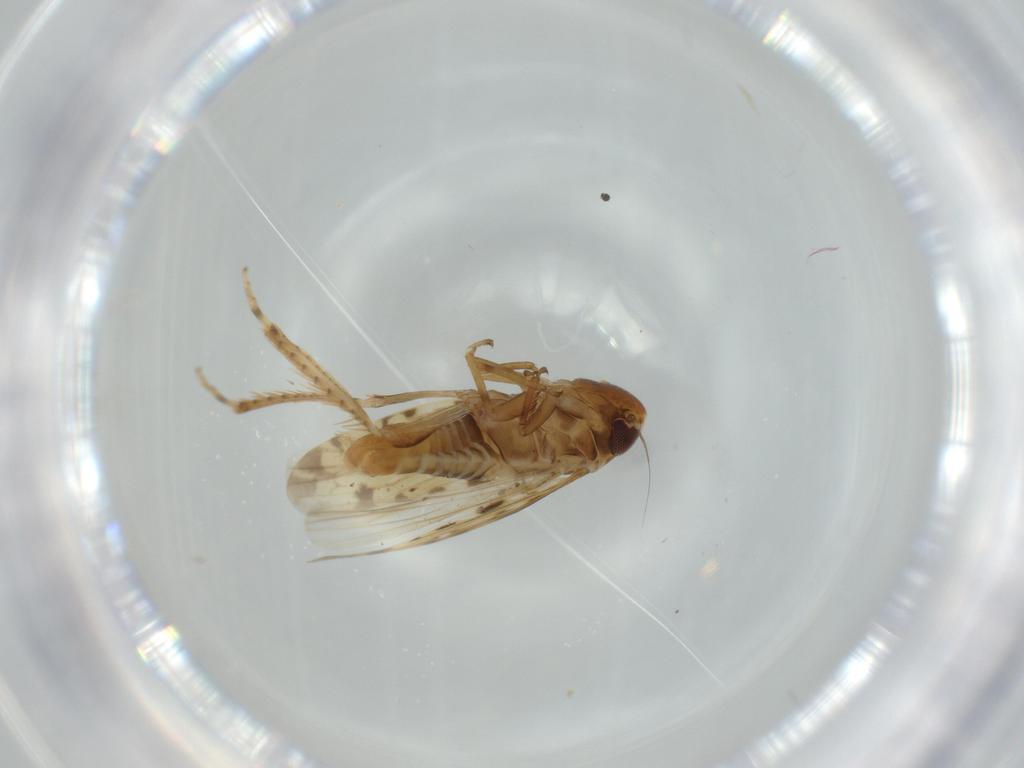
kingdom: Animalia
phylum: Arthropoda
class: Insecta
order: Hemiptera
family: Cicadellidae
